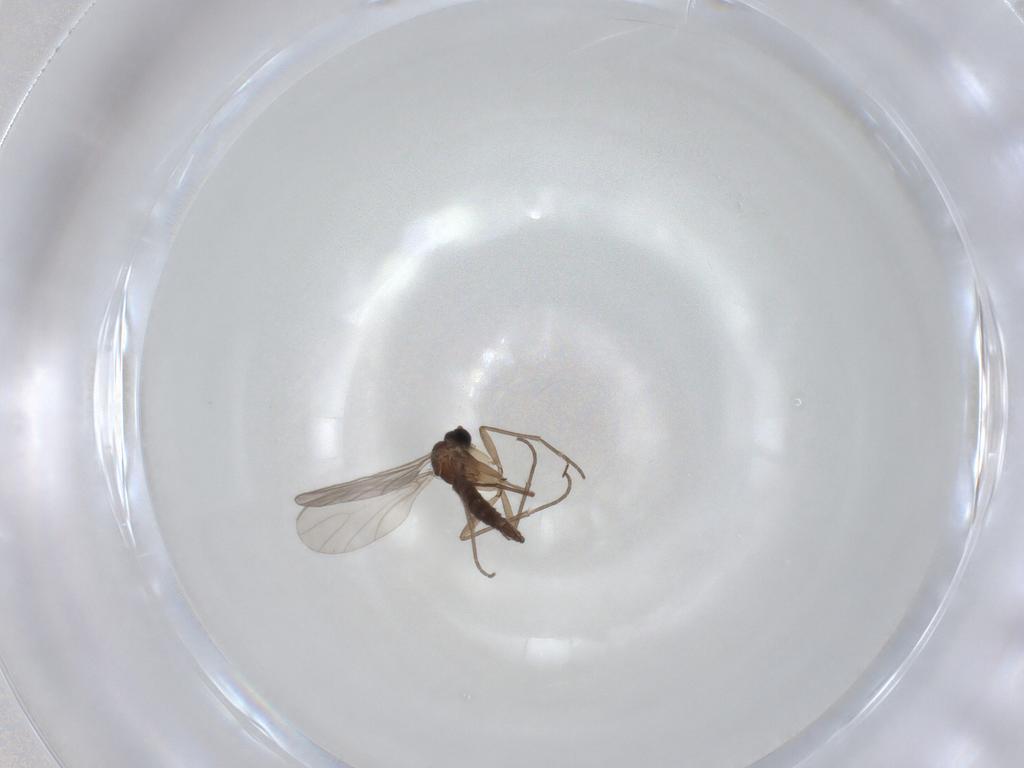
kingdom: Animalia
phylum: Arthropoda
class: Insecta
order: Diptera
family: Sciaridae
